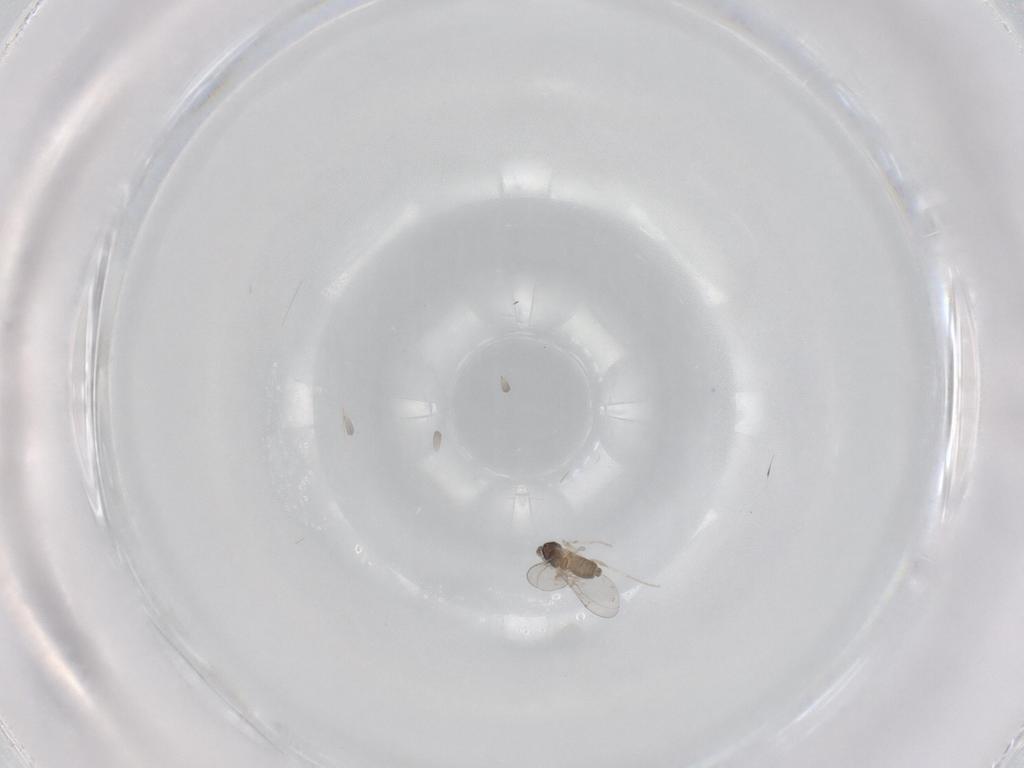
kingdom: Animalia
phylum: Arthropoda
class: Insecta
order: Diptera
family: Cecidomyiidae
